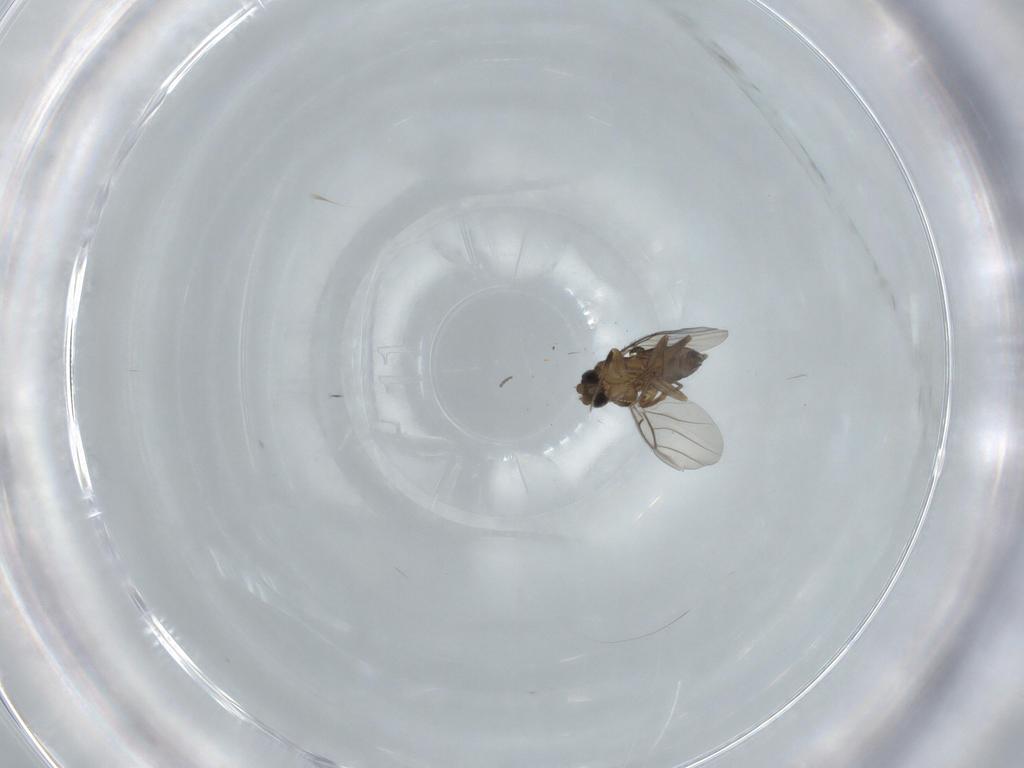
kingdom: Animalia
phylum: Arthropoda
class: Insecta
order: Diptera
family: Phoridae
